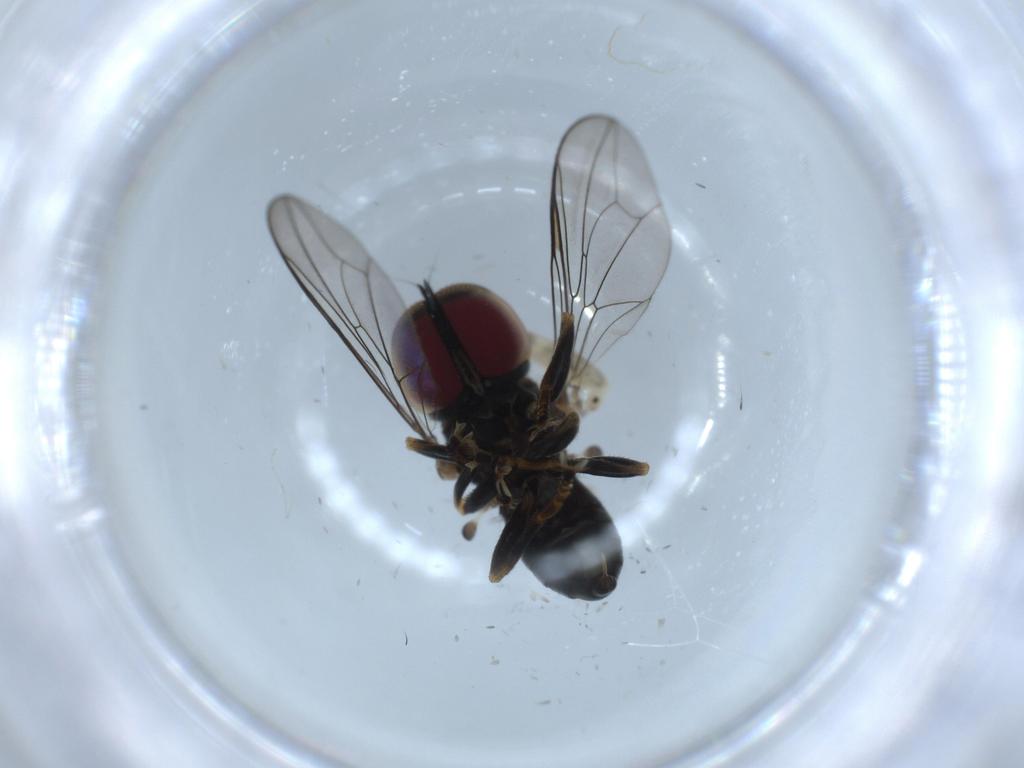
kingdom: Animalia
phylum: Arthropoda
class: Insecta
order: Diptera
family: Pipunculidae
